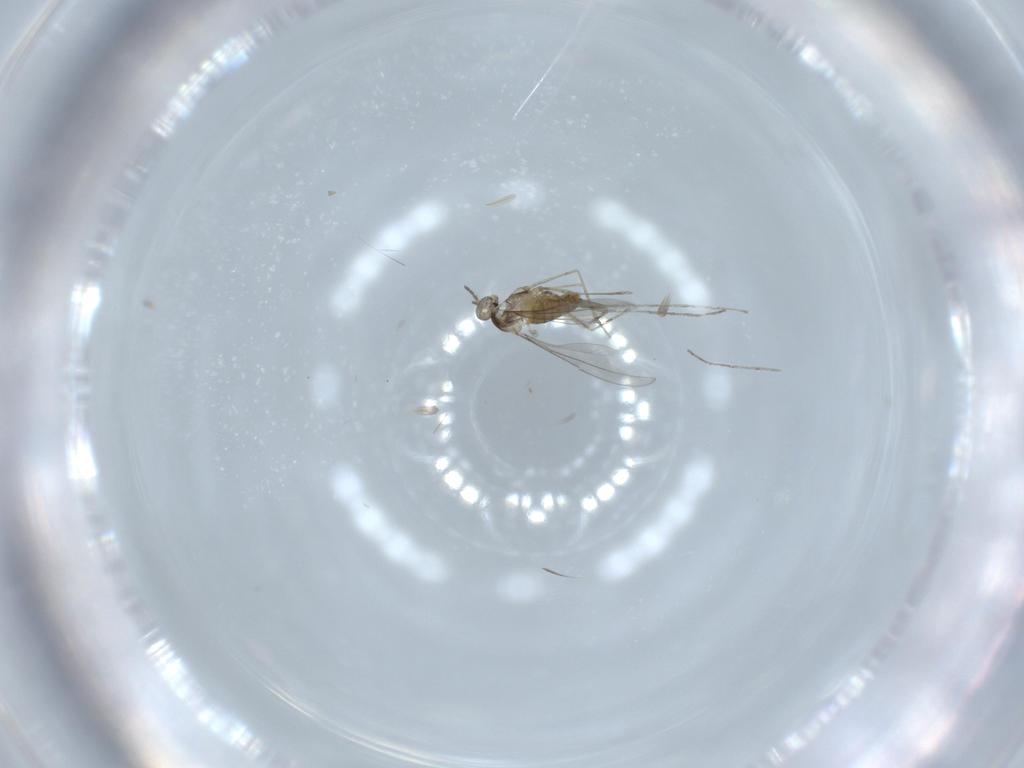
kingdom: Animalia
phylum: Arthropoda
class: Insecta
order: Diptera
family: Cecidomyiidae
